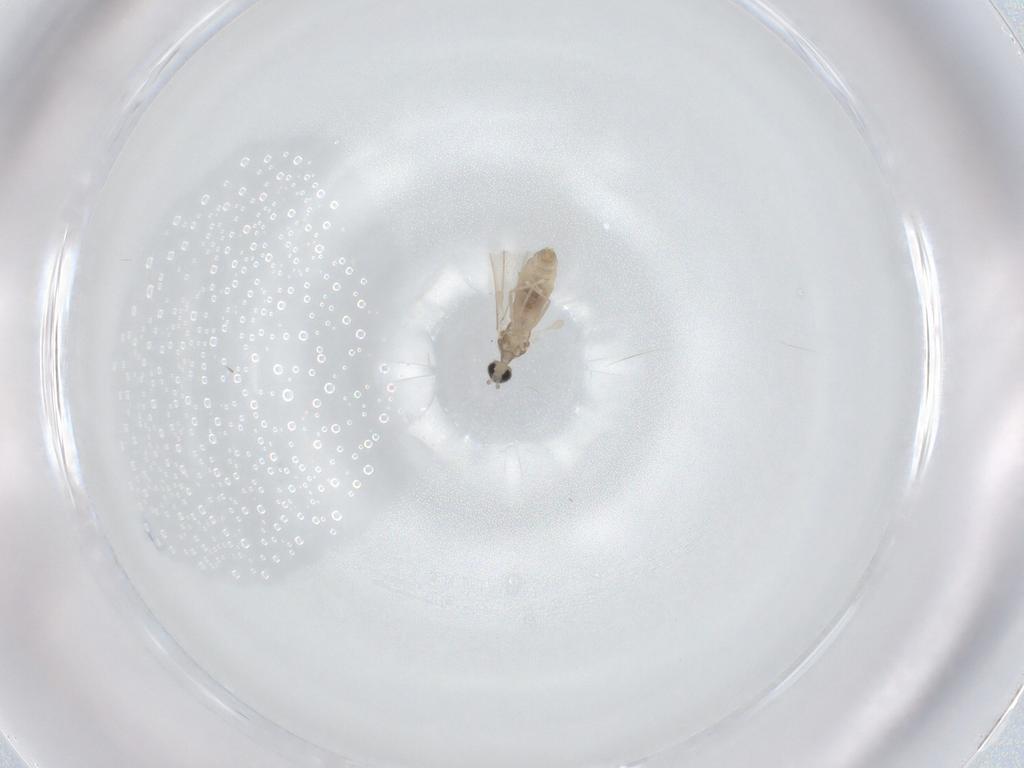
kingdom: Animalia
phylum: Arthropoda
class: Insecta
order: Diptera
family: Cecidomyiidae
